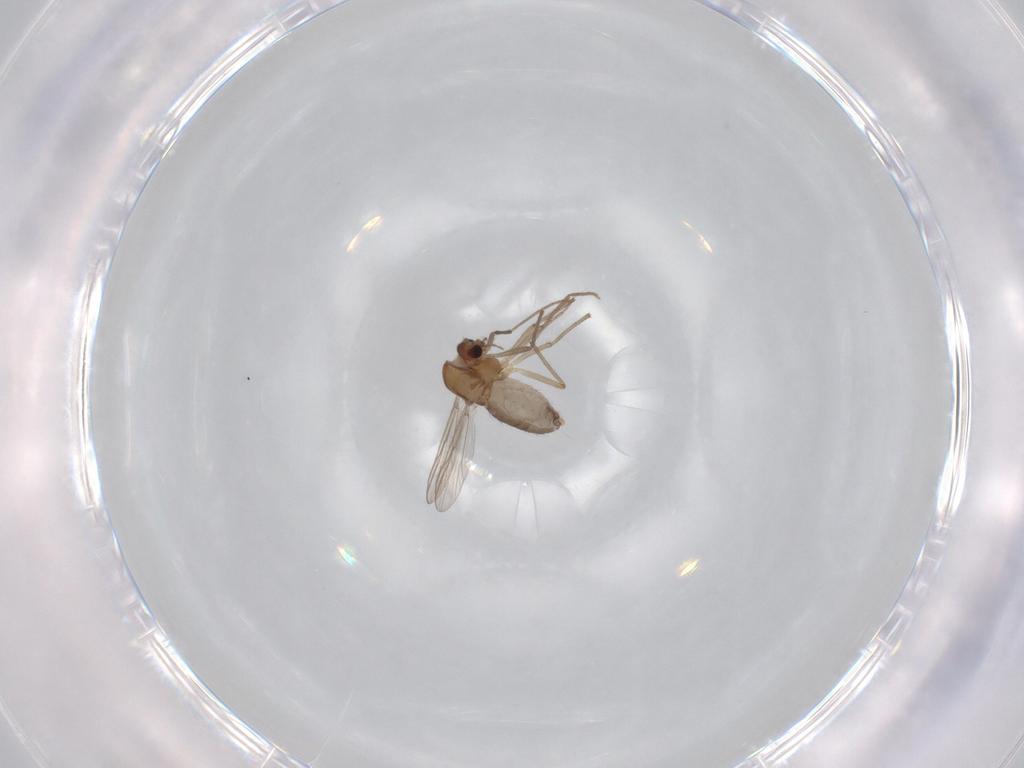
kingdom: Animalia
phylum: Arthropoda
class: Insecta
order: Diptera
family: Chironomidae
